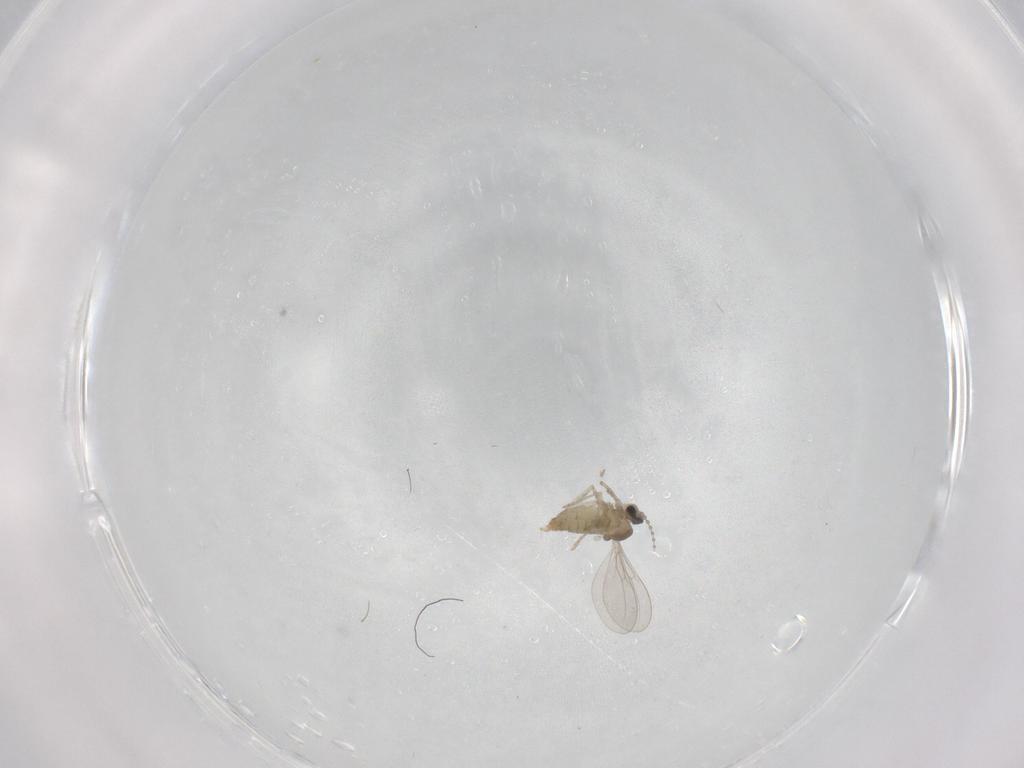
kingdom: Animalia
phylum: Arthropoda
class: Insecta
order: Diptera
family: Cecidomyiidae
